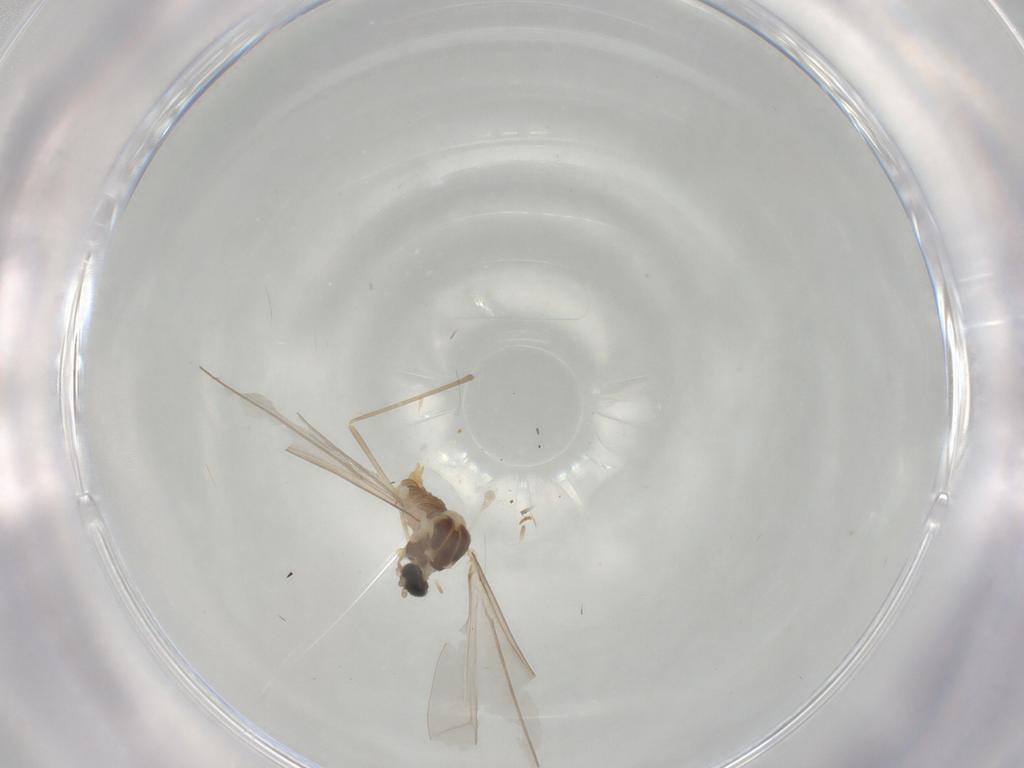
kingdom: Animalia
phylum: Arthropoda
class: Insecta
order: Diptera
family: Cecidomyiidae
